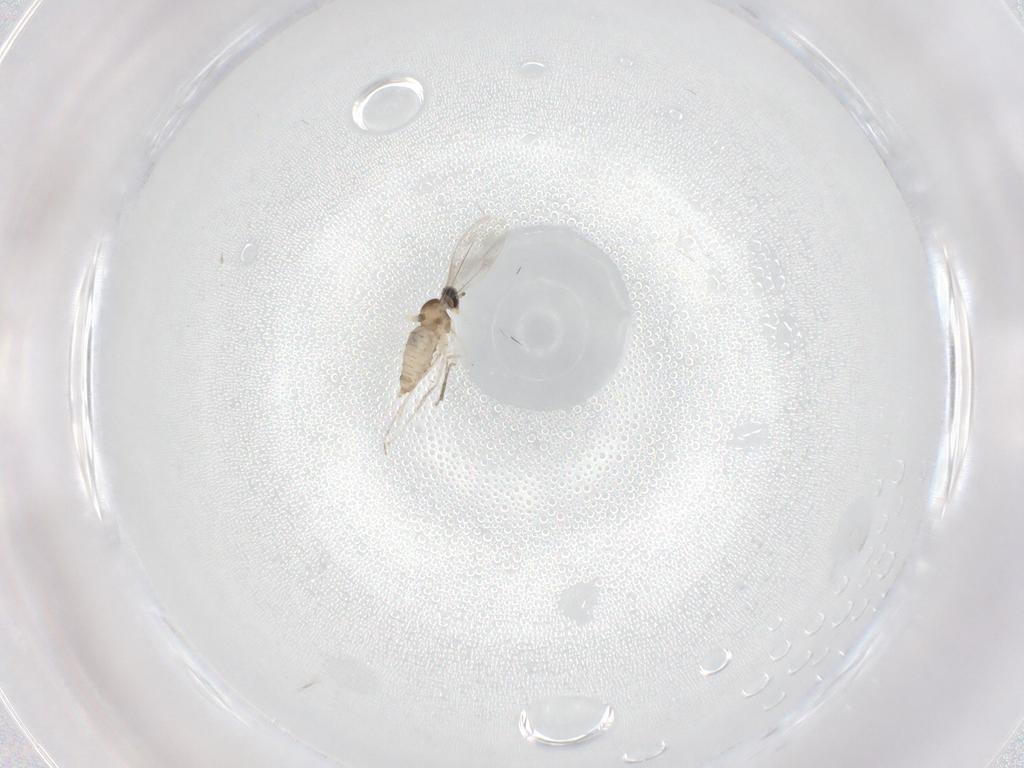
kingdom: Animalia
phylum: Arthropoda
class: Insecta
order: Diptera
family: Cecidomyiidae
